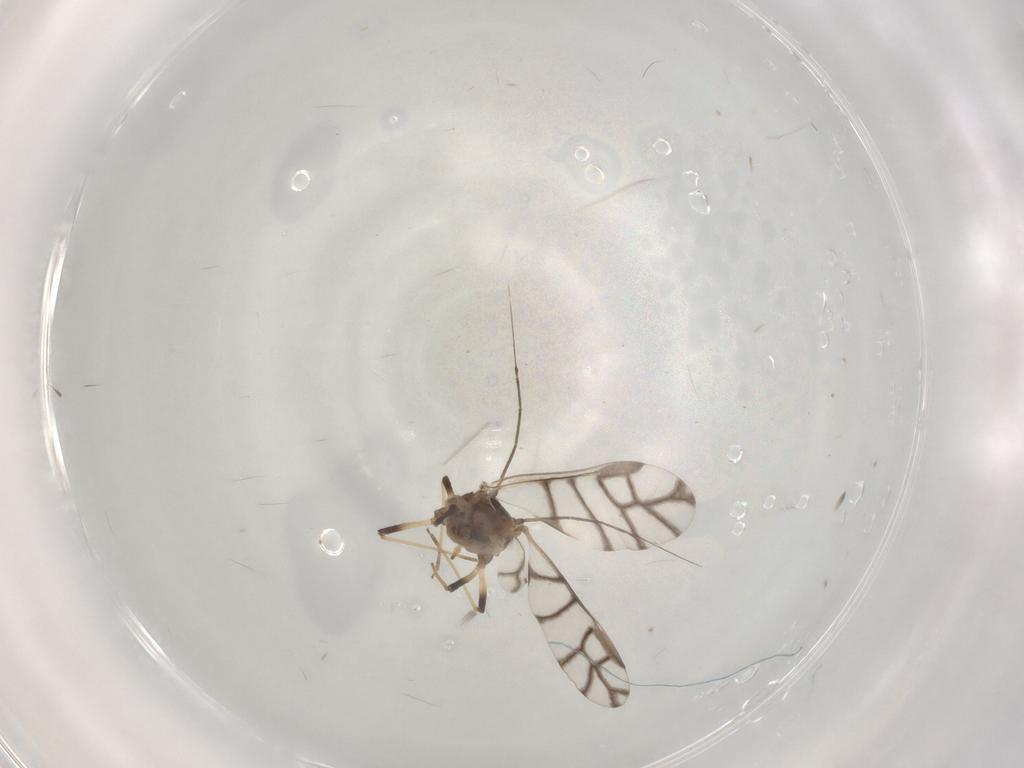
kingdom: Animalia
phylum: Arthropoda
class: Insecta
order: Hemiptera
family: Aphididae
